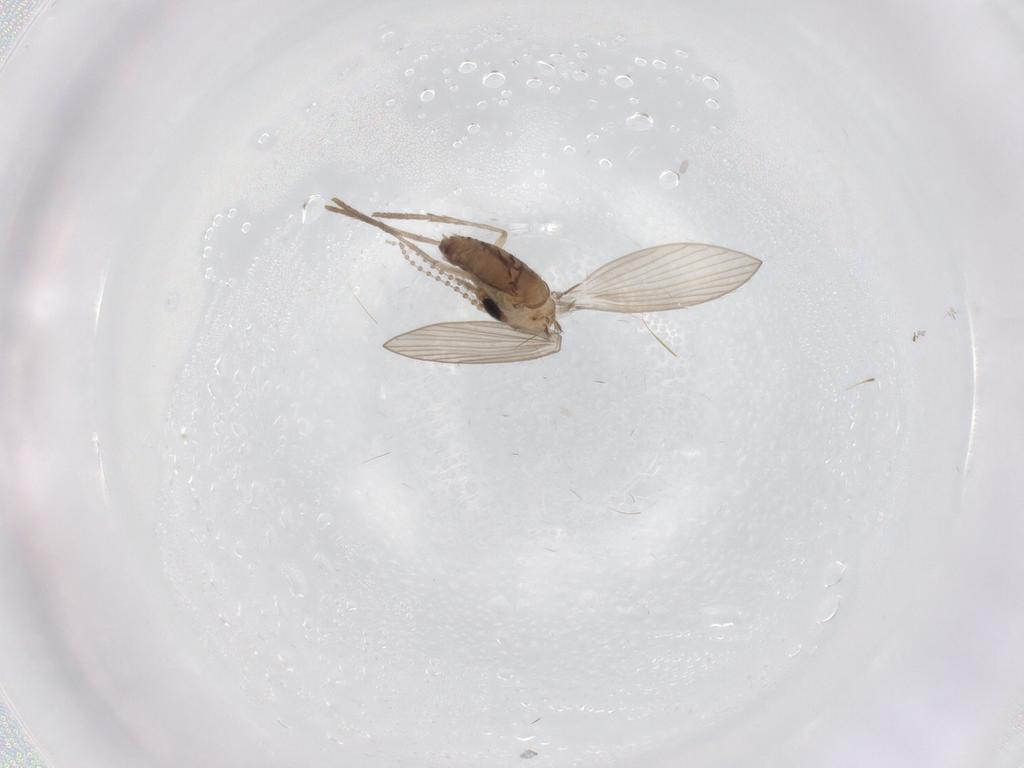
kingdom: Animalia
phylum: Arthropoda
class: Insecta
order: Diptera
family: Psychodidae
